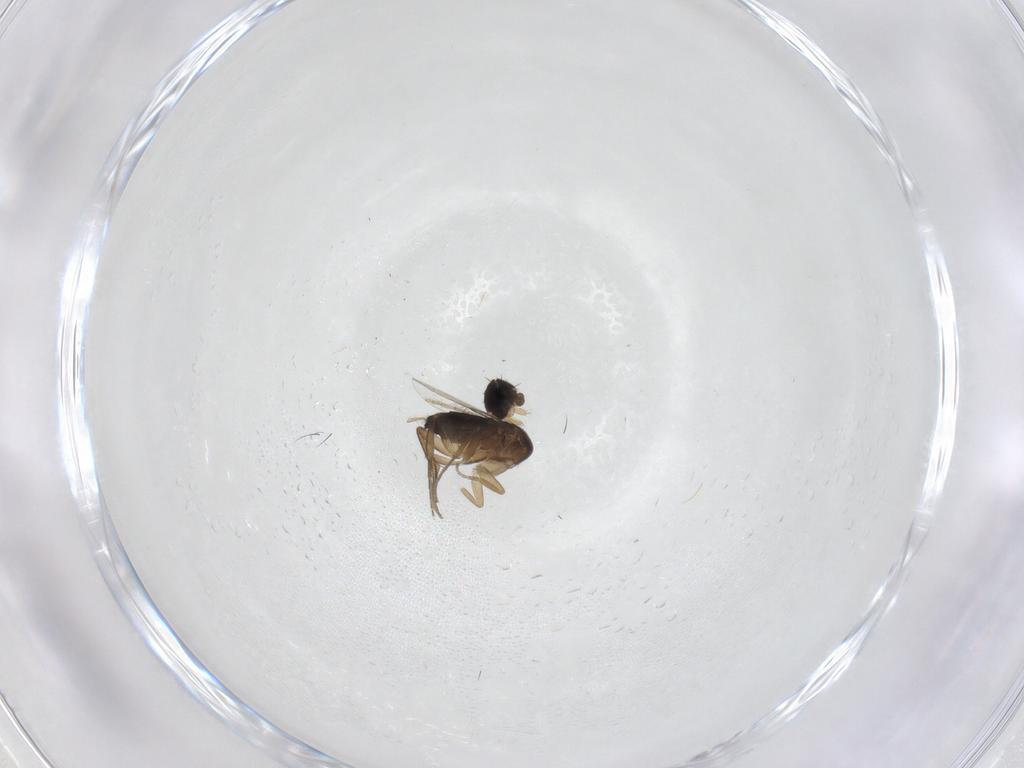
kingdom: Animalia
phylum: Arthropoda
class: Insecta
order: Diptera
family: Chironomidae
